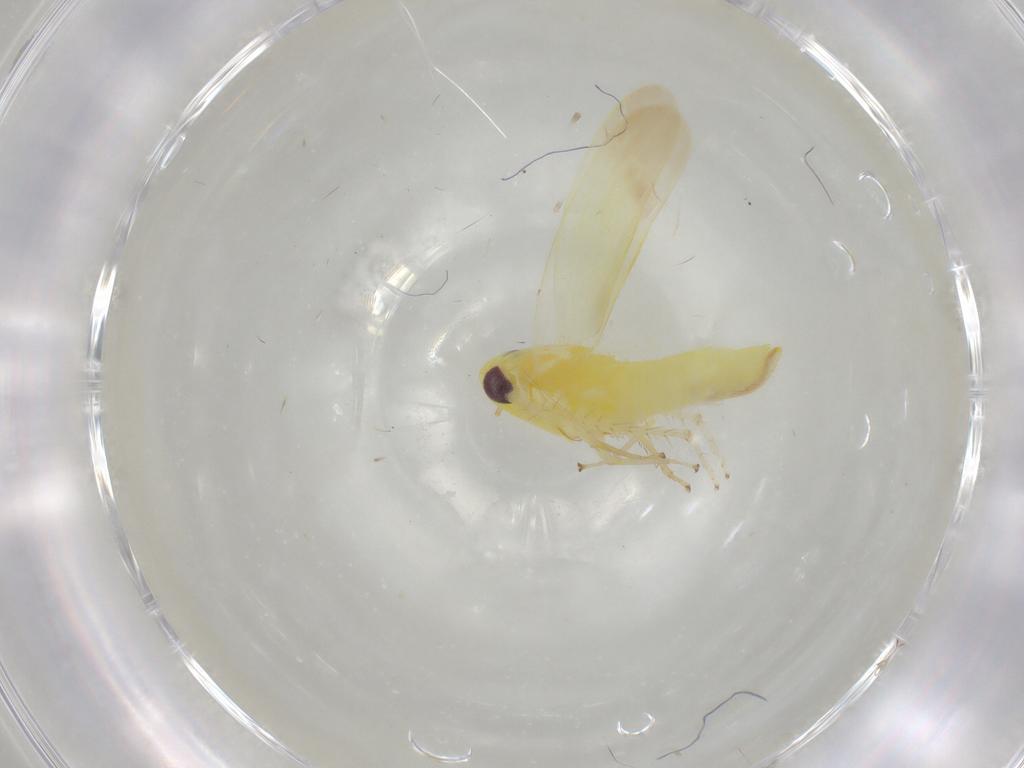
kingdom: Animalia
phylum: Arthropoda
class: Insecta
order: Hemiptera
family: Cicadellidae
